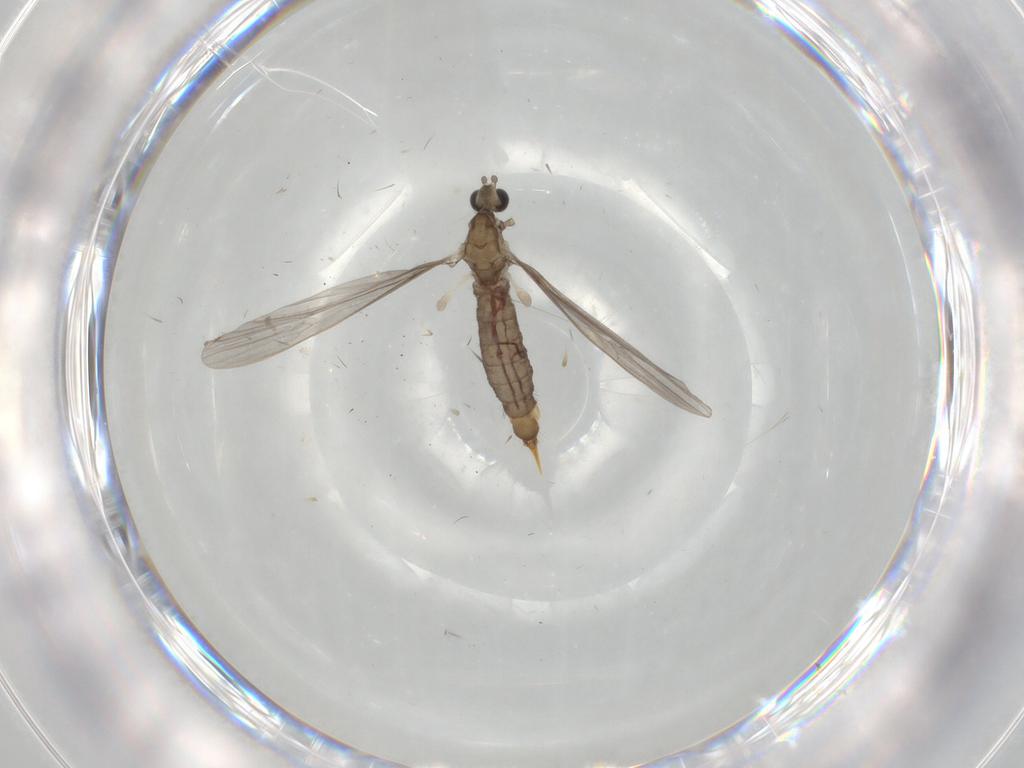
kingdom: Animalia
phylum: Arthropoda
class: Insecta
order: Diptera
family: Limoniidae
